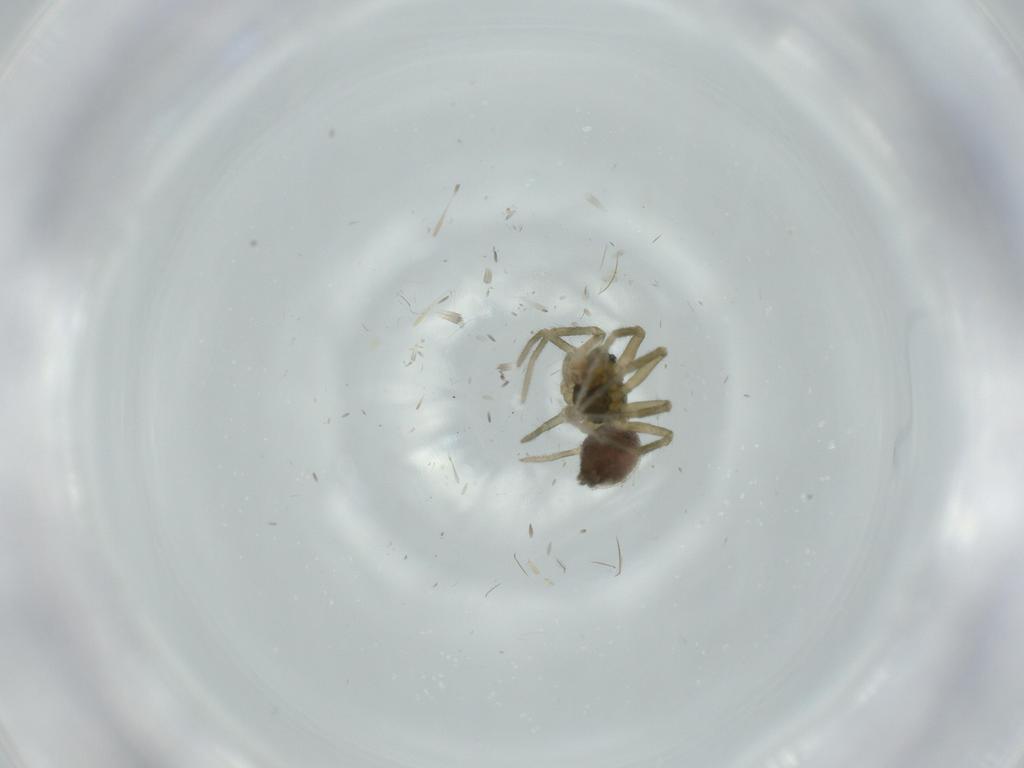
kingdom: Animalia
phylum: Arthropoda
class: Arachnida
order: Araneae
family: Linyphiidae
